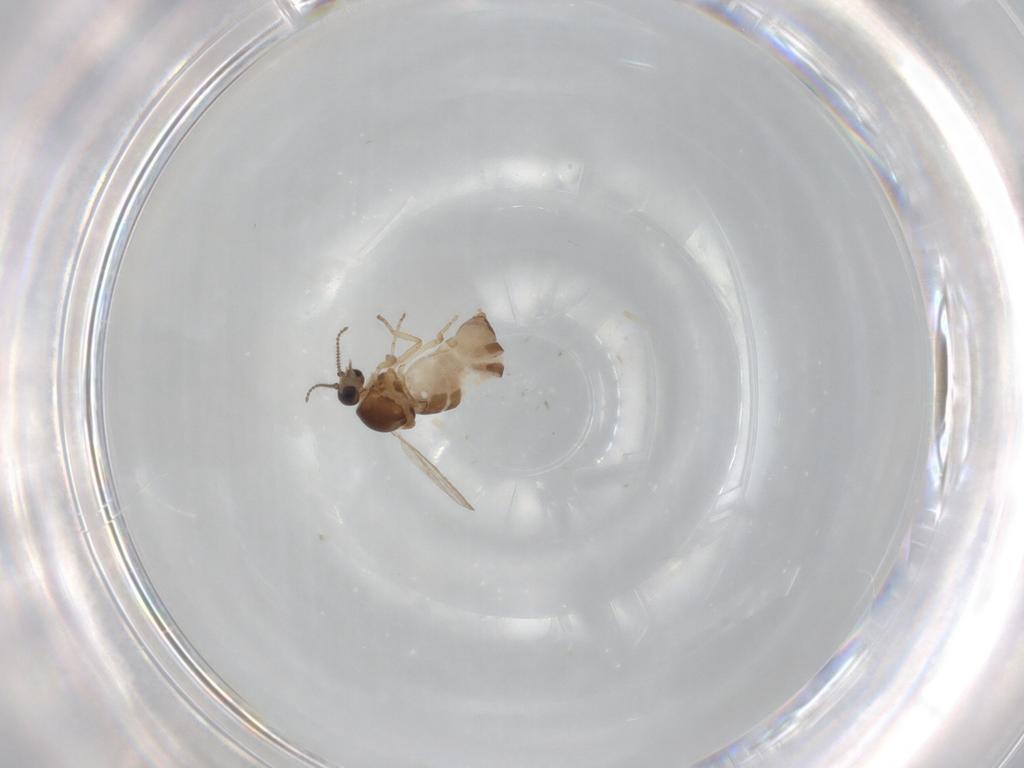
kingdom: Animalia
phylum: Arthropoda
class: Insecta
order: Diptera
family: Ceratopogonidae
